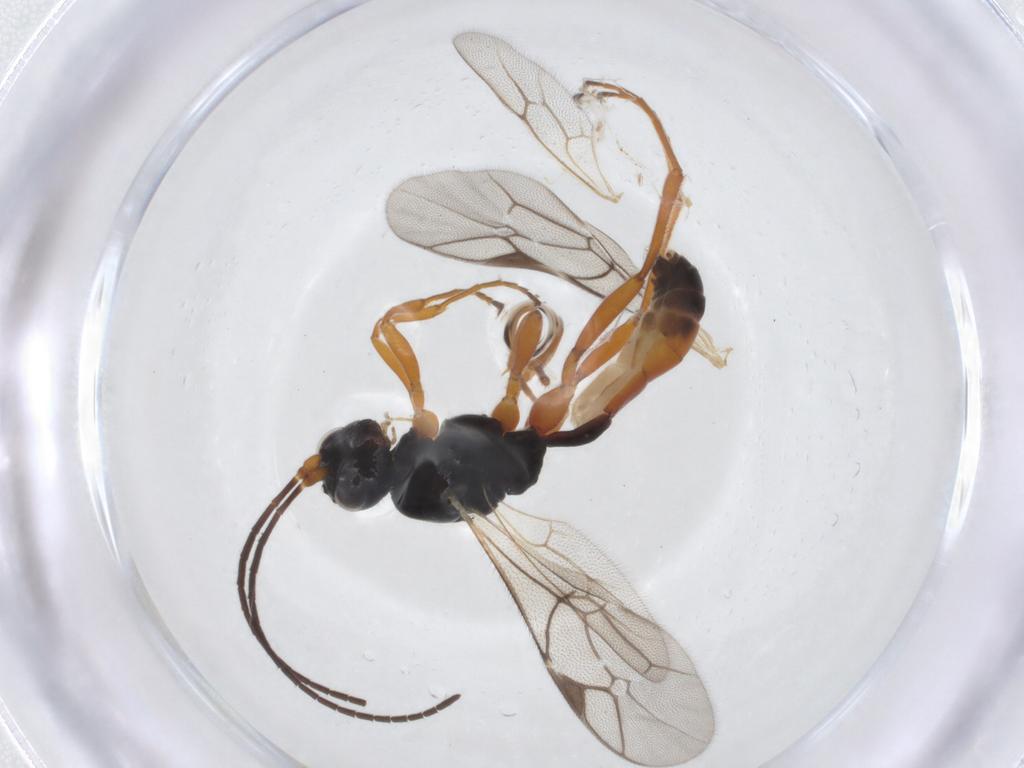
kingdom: Animalia
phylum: Arthropoda
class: Insecta
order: Hymenoptera
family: Ichneumonidae
